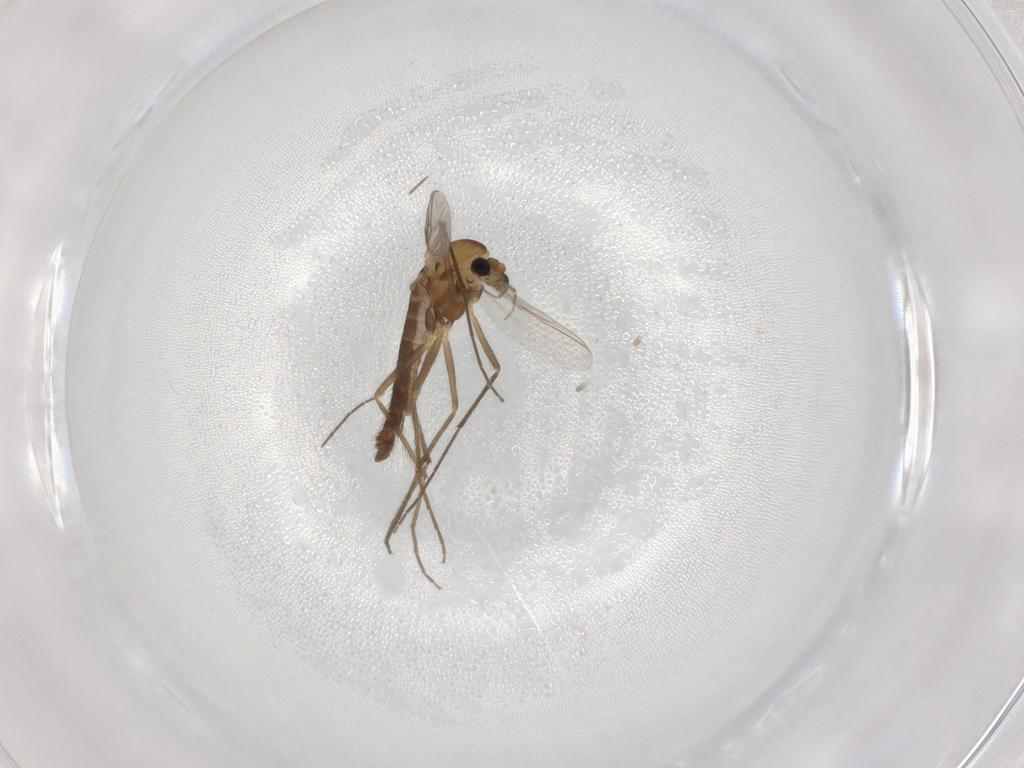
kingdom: Animalia
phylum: Arthropoda
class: Insecta
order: Diptera
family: Chironomidae
